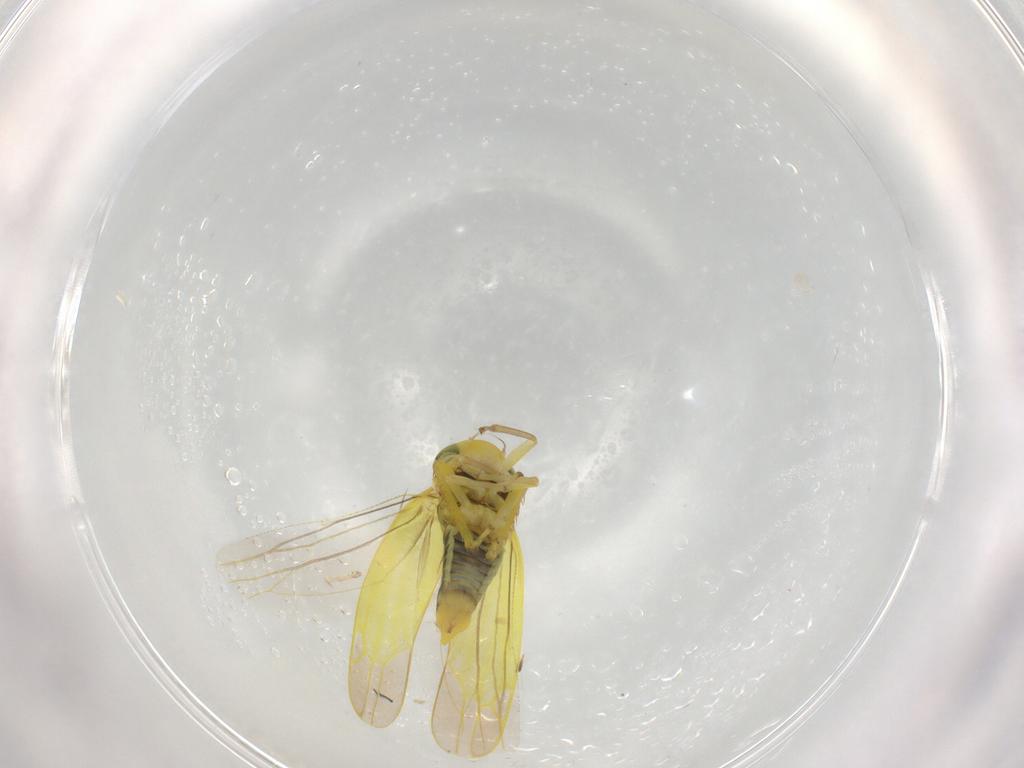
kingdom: Animalia
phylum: Arthropoda
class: Insecta
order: Hemiptera
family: Cicadellidae
